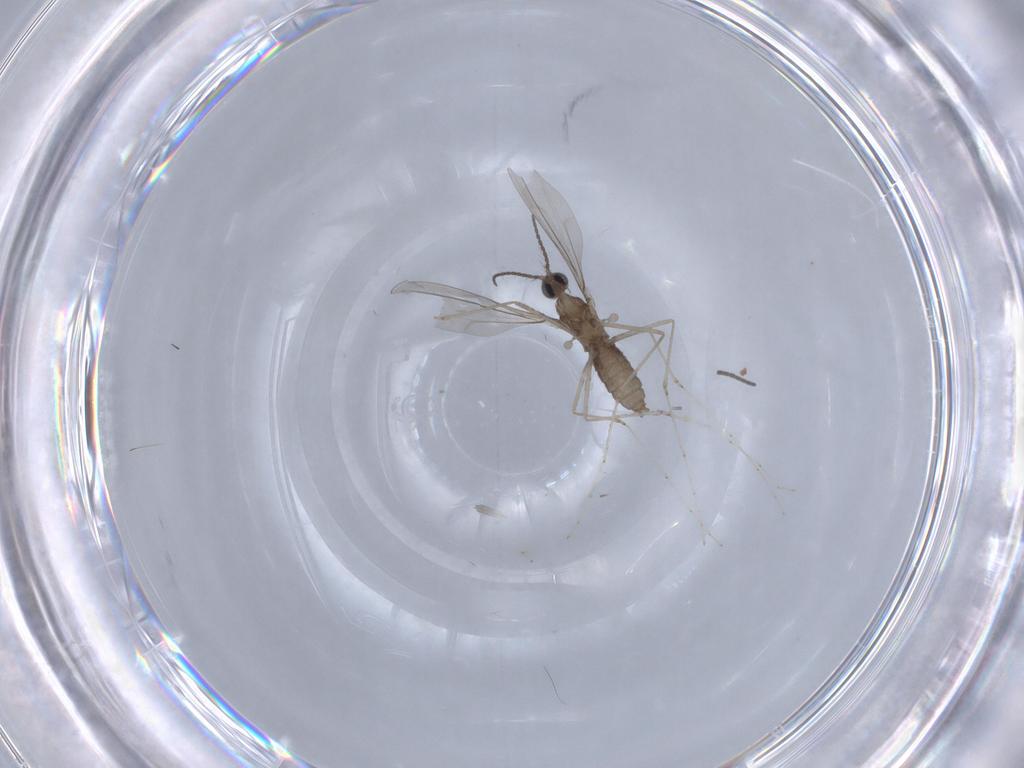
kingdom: Animalia
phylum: Arthropoda
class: Insecta
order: Diptera
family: Cecidomyiidae
